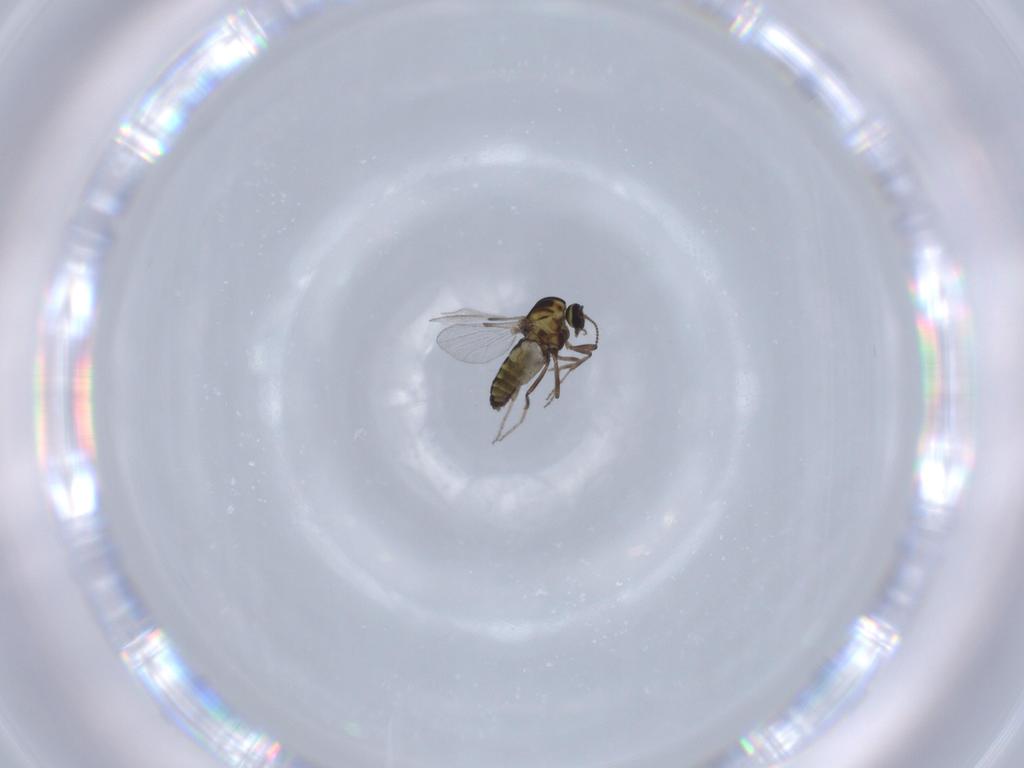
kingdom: Animalia
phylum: Arthropoda
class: Insecta
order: Diptera
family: Ceratopogonidae
